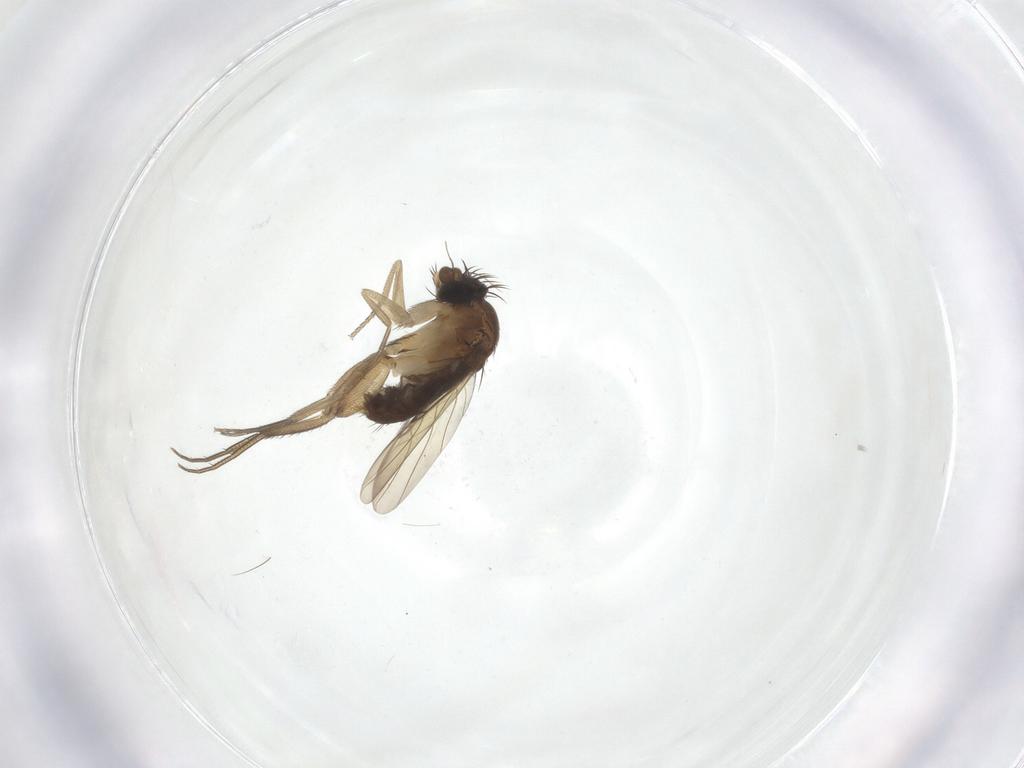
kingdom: Animalia
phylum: Arthropoda
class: Insecta
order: Diptera
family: Phoridae
